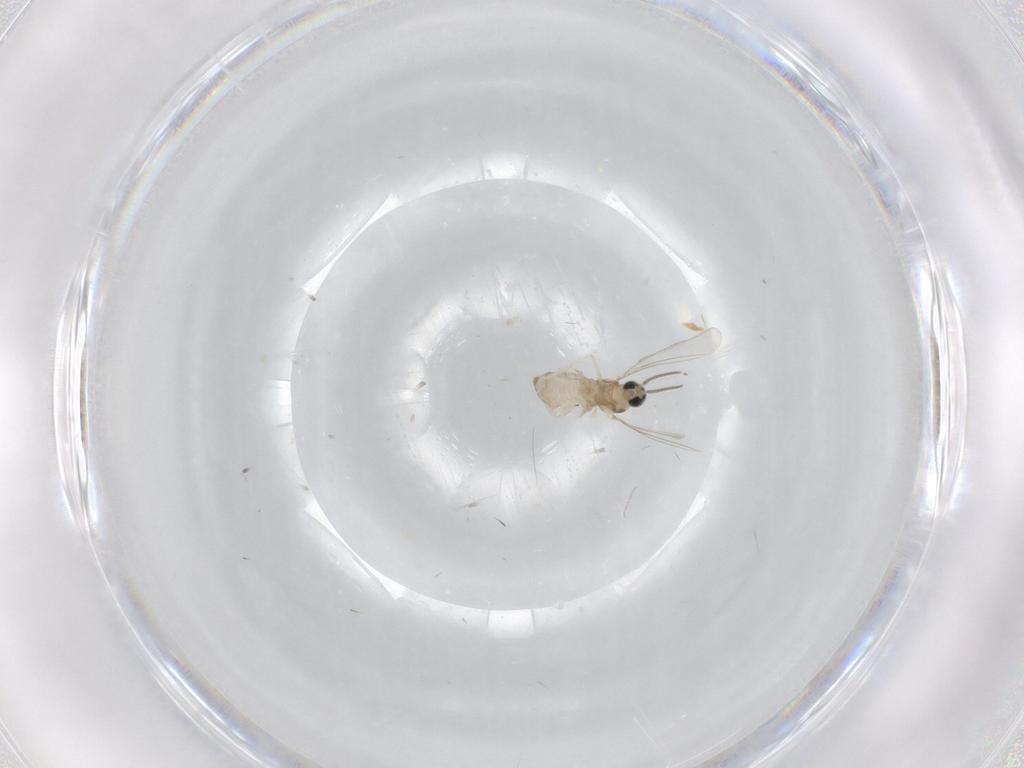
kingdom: Animalia
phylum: Arthropoda
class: Insecta
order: Diptera
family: Cecidomyiidae
